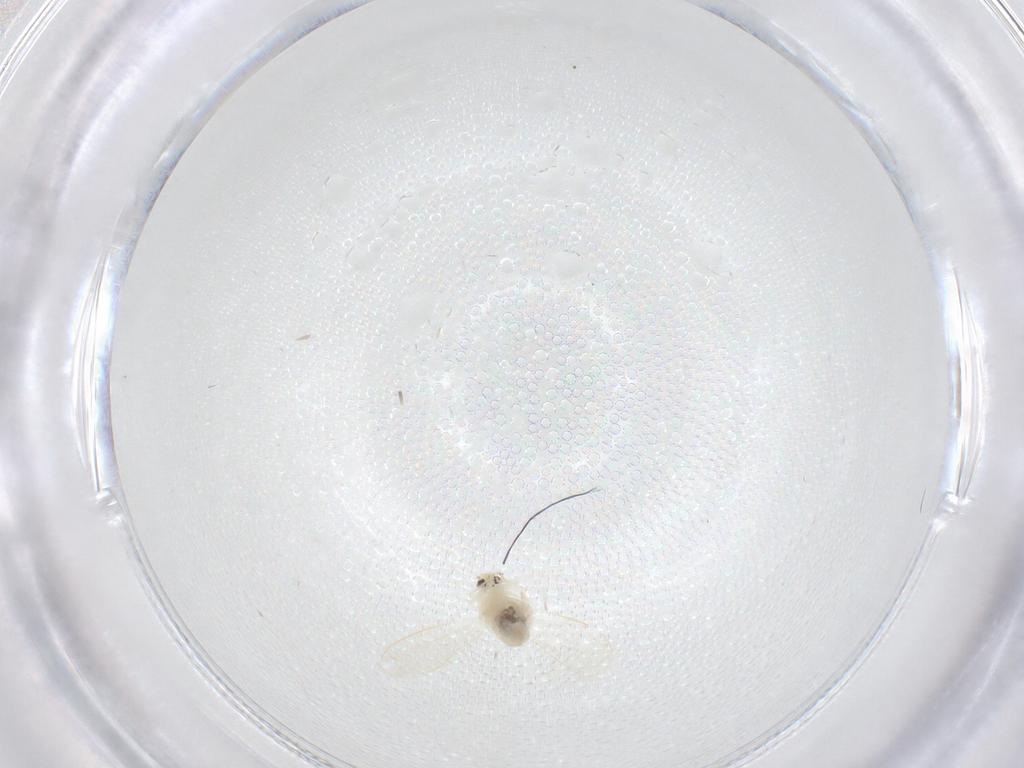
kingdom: Animalia
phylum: Arthropoda
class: Insecta
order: Hemiptera
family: Aleyrodidae
